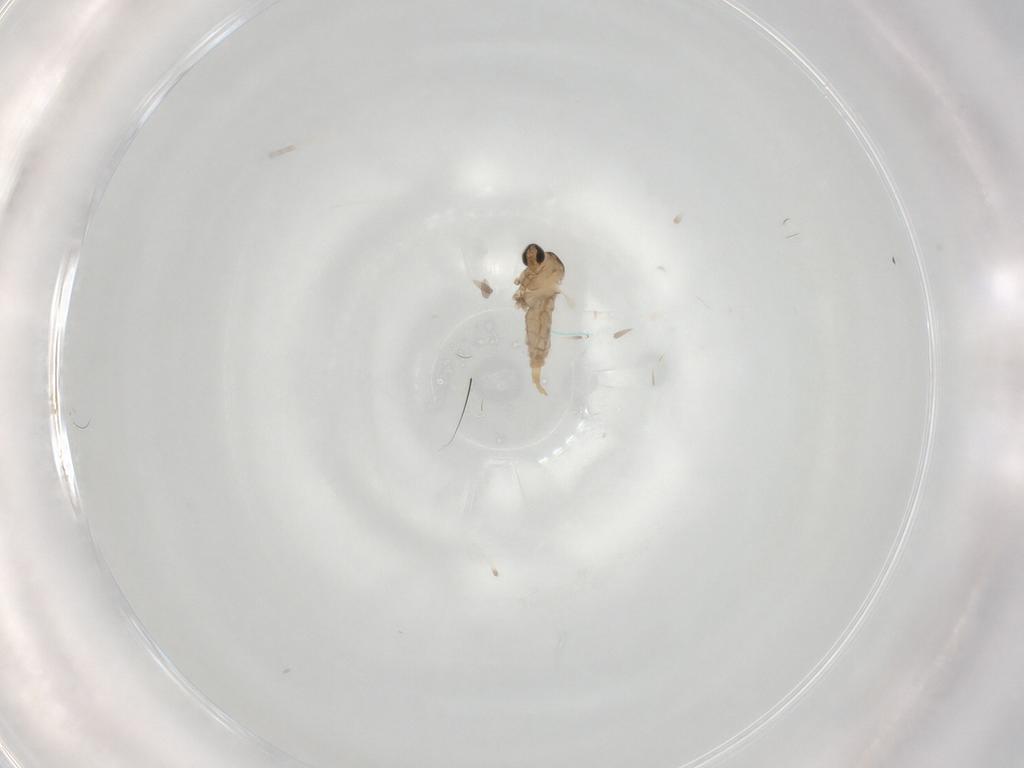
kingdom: Animalia
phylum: Arthropoda
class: Insecta
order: Diptera
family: Cecidomyiidae
